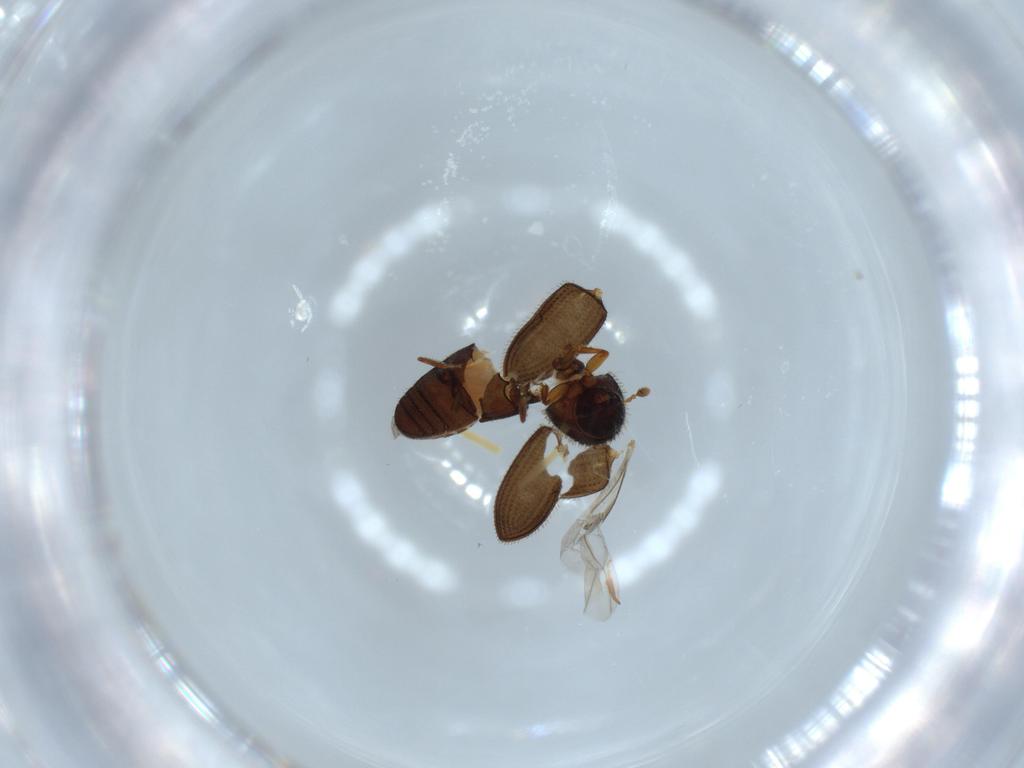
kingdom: Animalia
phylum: Arthropoda
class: Insecta
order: Coleoptera
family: Curculionidae
